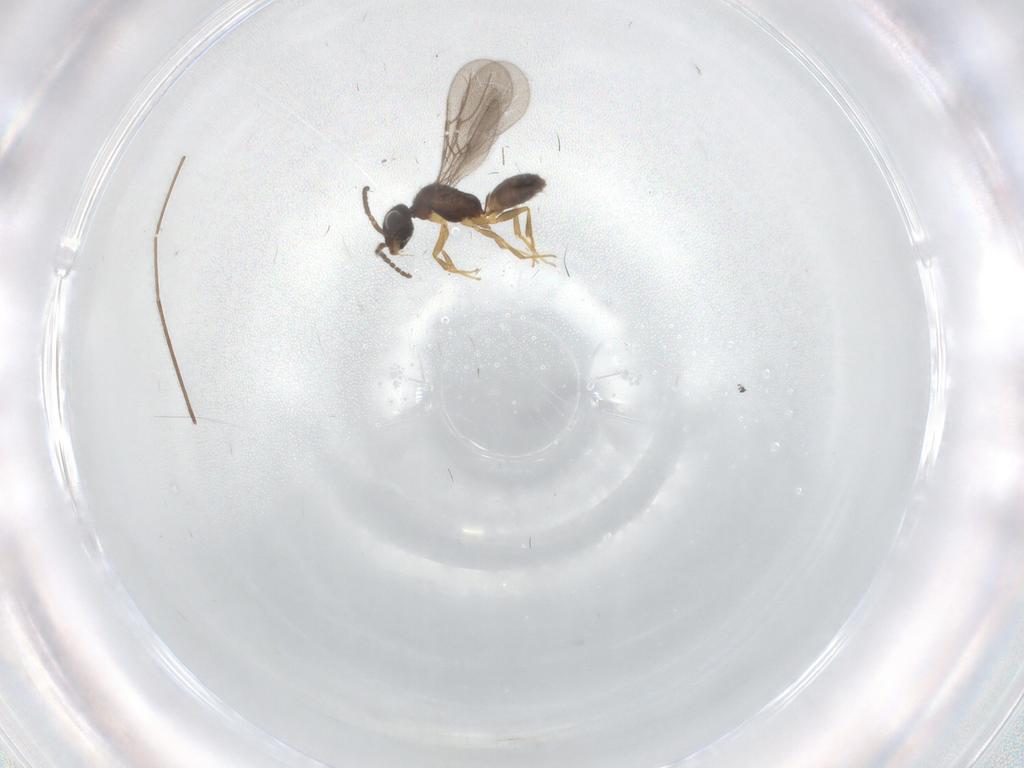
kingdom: Animalia
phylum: Arthropoda
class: Insecta
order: Hymenoptera
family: Bethylidae
